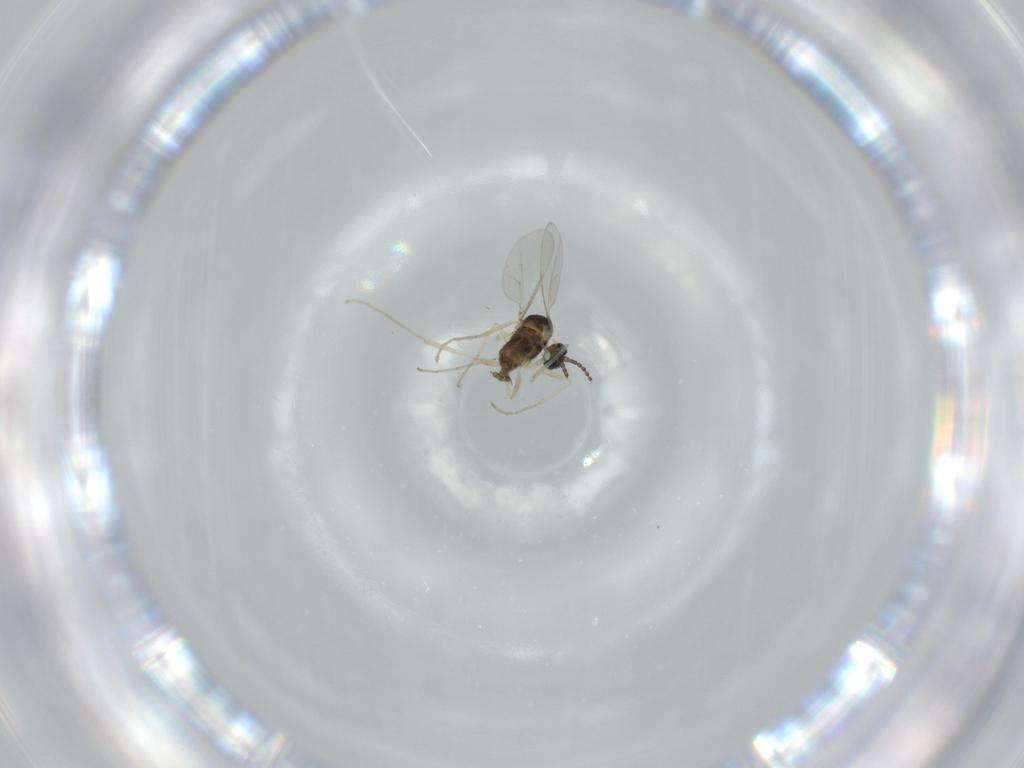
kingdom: Animalia
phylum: Arthropoda
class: Insecta
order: Diptera
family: Cecidomyiidae
